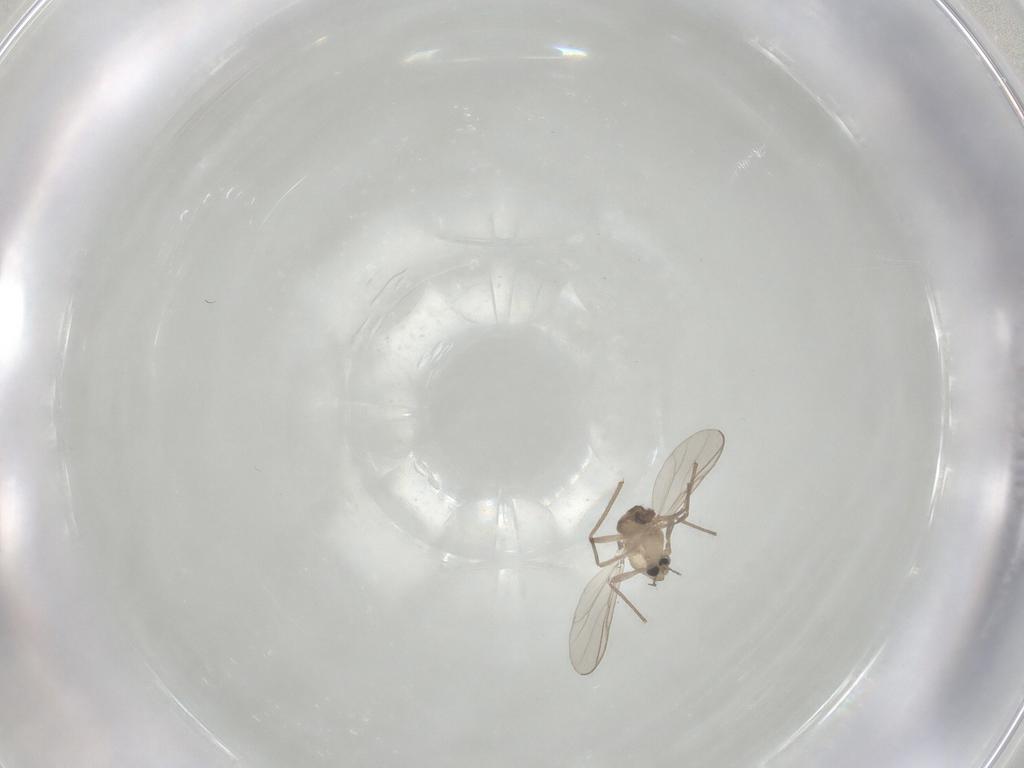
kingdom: Animalia
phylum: Arthropoda
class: Insecta
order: Diptera
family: Chironomidae
